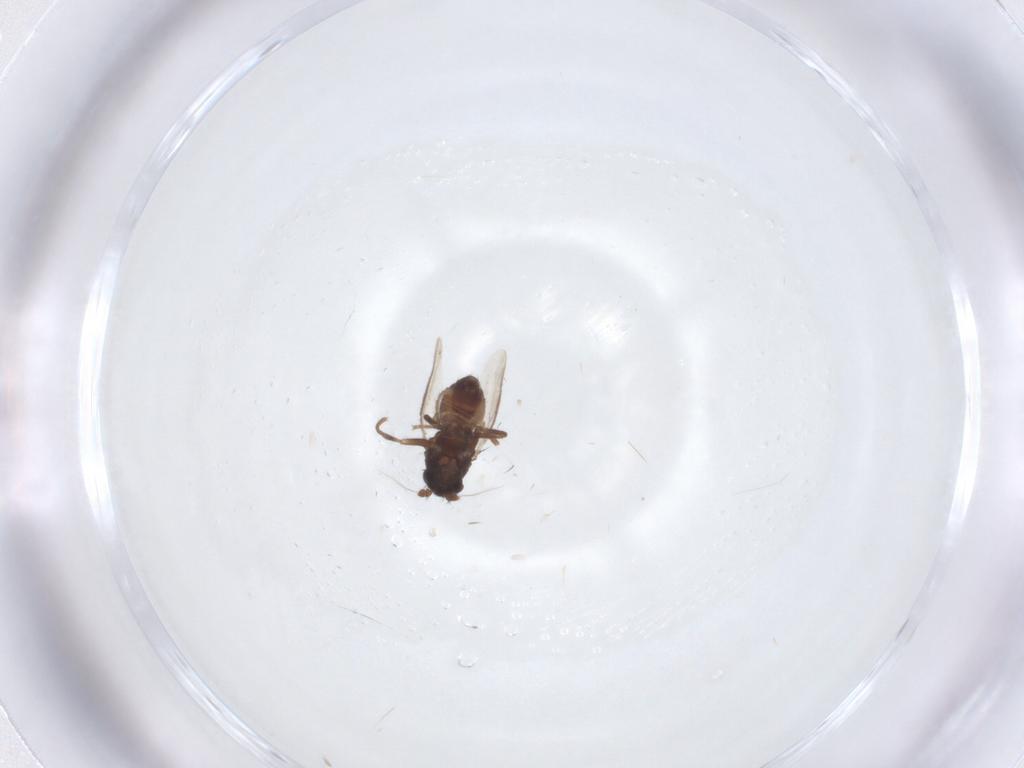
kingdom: Animalia
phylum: Arthropoda
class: Insecta
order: Diptera
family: Sphaeroceridae
